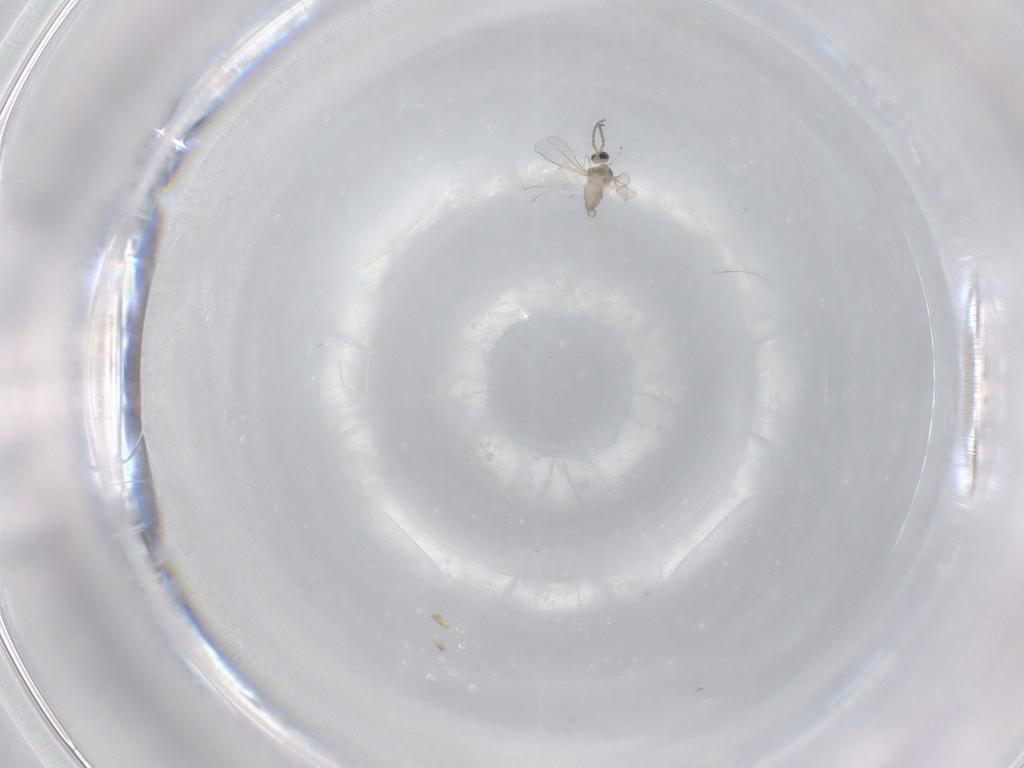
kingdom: Animalia
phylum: Arthropoda
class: Insecta
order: Diptera
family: Cecidomyiidae
